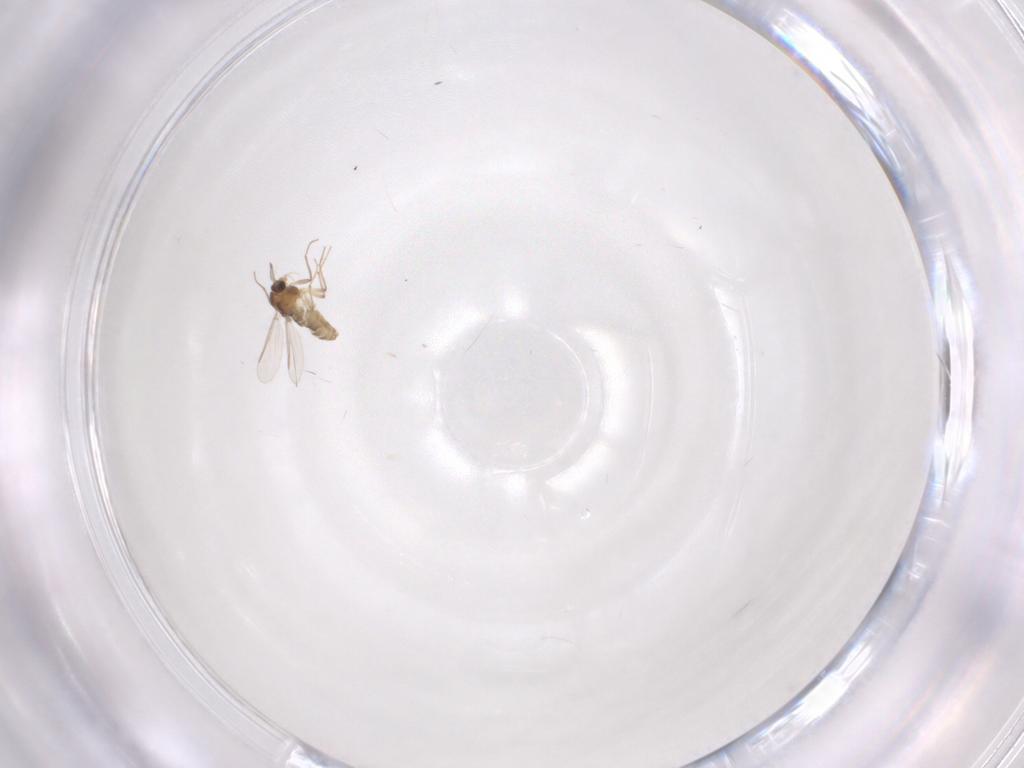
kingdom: Animalia
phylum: Arthropoda
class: Insecta
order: Diptera
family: Chironomidae
